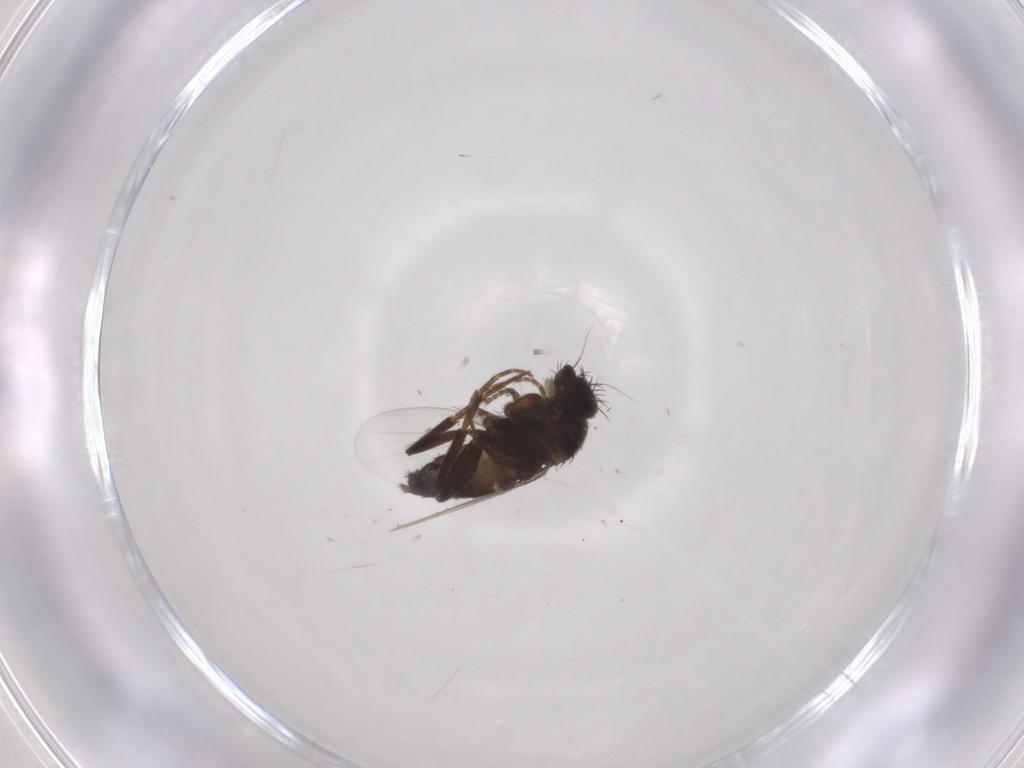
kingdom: Animalia
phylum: Arthropoda
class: Insecta
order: Diptera
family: Phoridae
